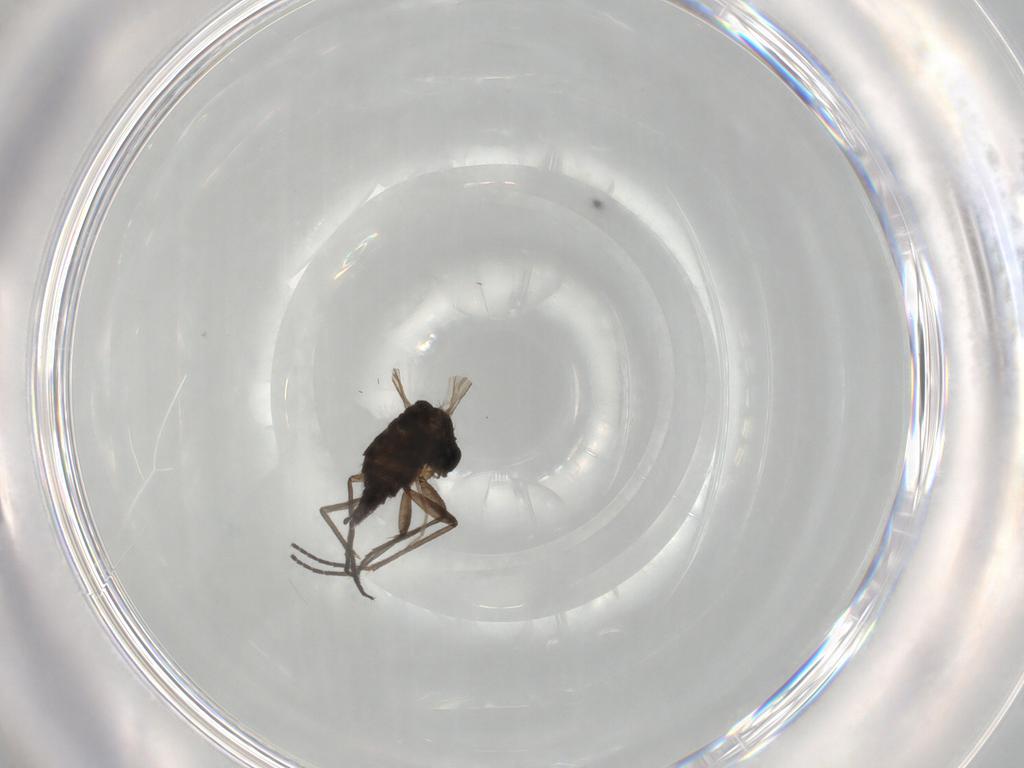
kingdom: Animalia
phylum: Arthropoda
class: Insecta
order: Diptera
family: Sciaridae
